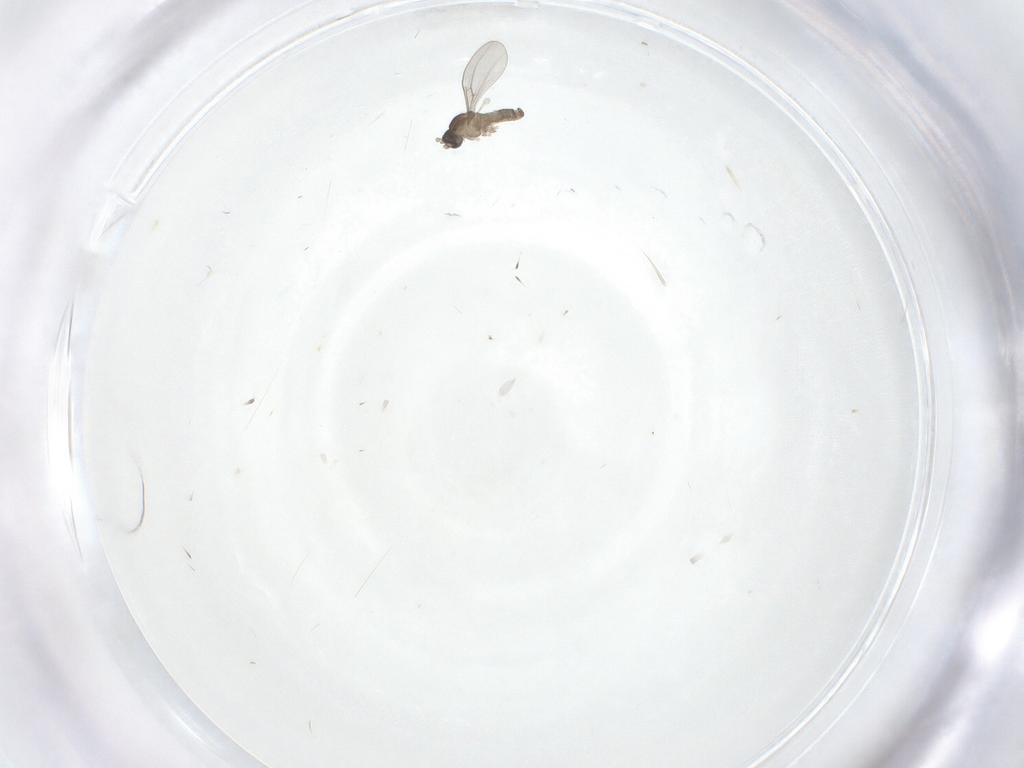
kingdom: Animalia
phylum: Arthropoda
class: Insecta
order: Diptera
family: Cecidomyiidae
